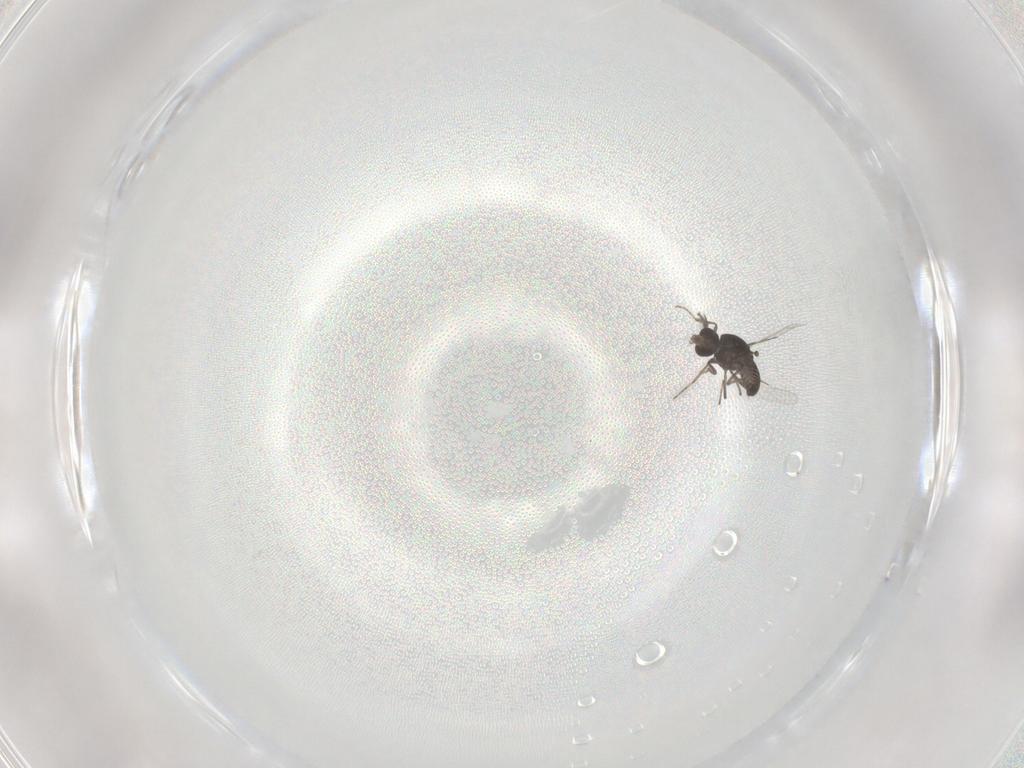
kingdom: Animalia
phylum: Arthropoda
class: Insecta
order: Diptera
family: Ceratopogonidae
